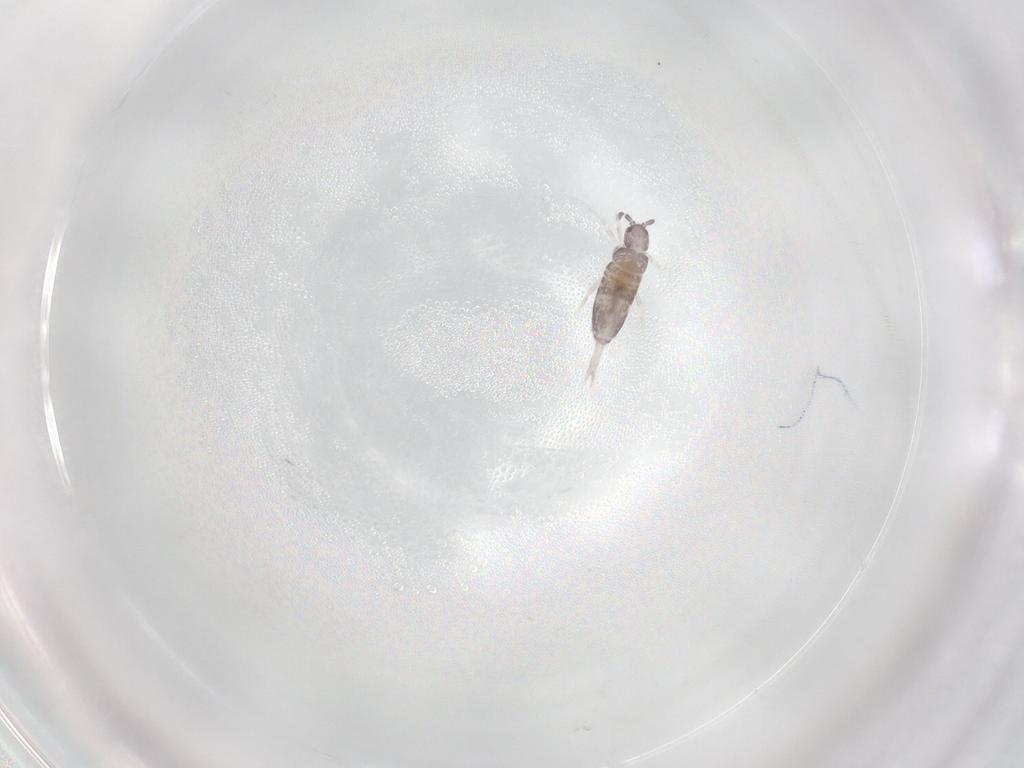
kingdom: Animalia
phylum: Arthropoda
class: Collembola
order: Entomobryomorpha
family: Entomobryidae
